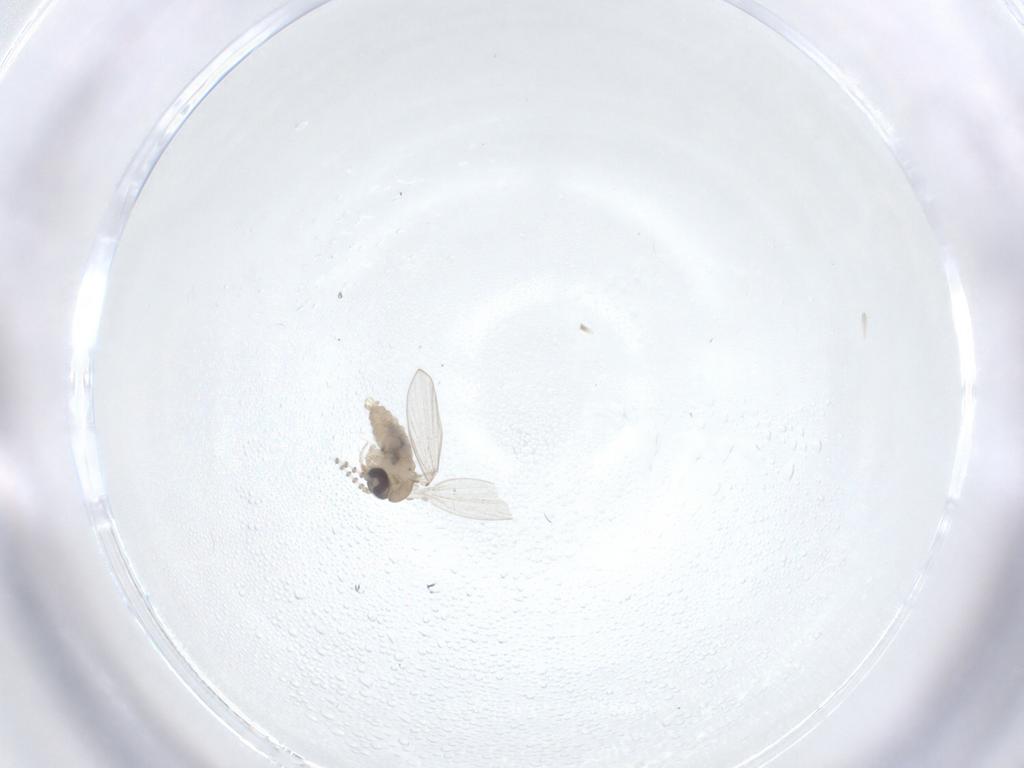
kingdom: Animalia
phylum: Arthropoda
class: Insecta
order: Diptera
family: Psychodidae
